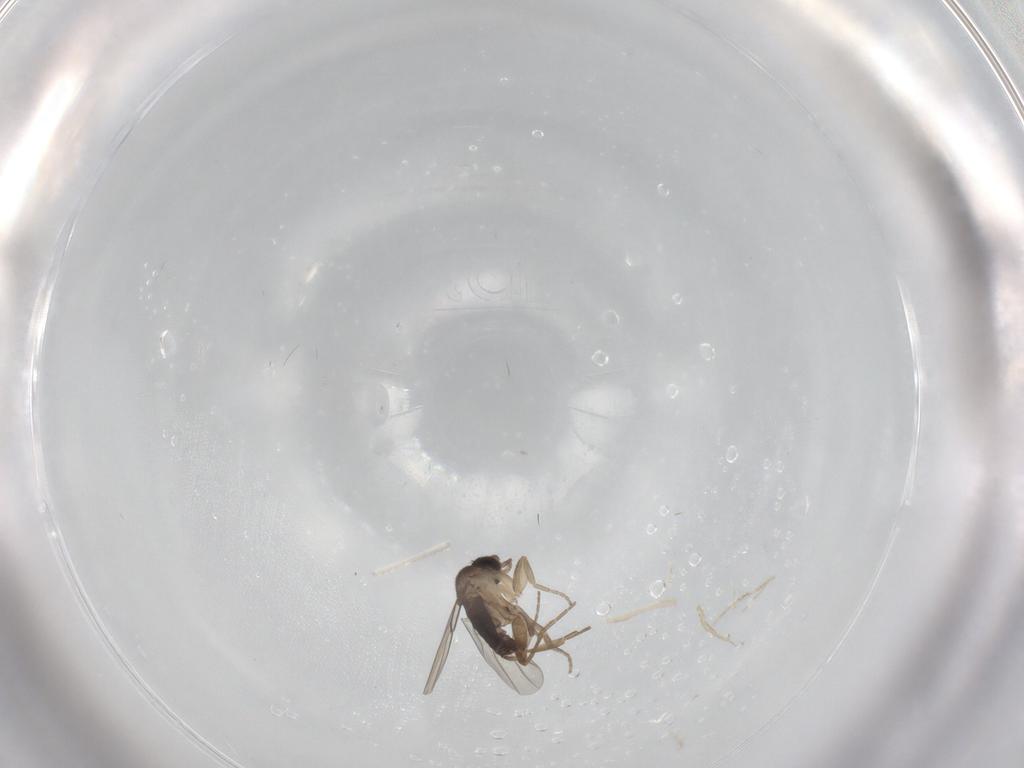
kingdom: Animalia
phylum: Arthropoda
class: Insecta
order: Diptera
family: Phoridae
